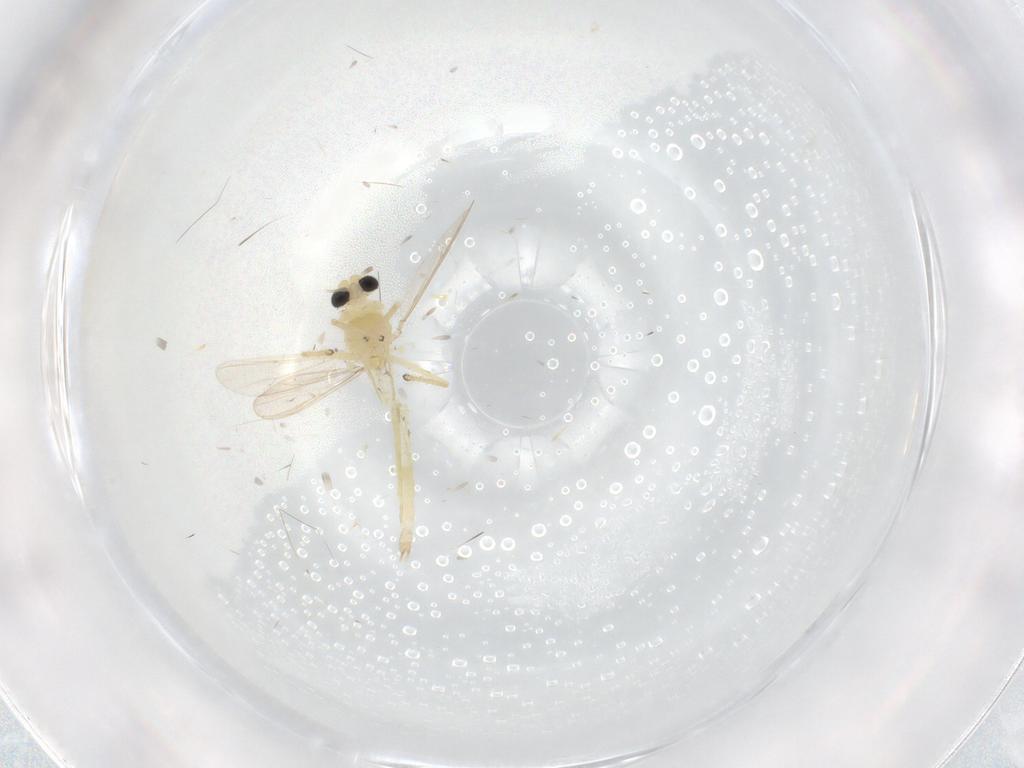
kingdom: Animalia
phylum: Arthropoda
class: Insecta
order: Diptera
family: Chironomidae
